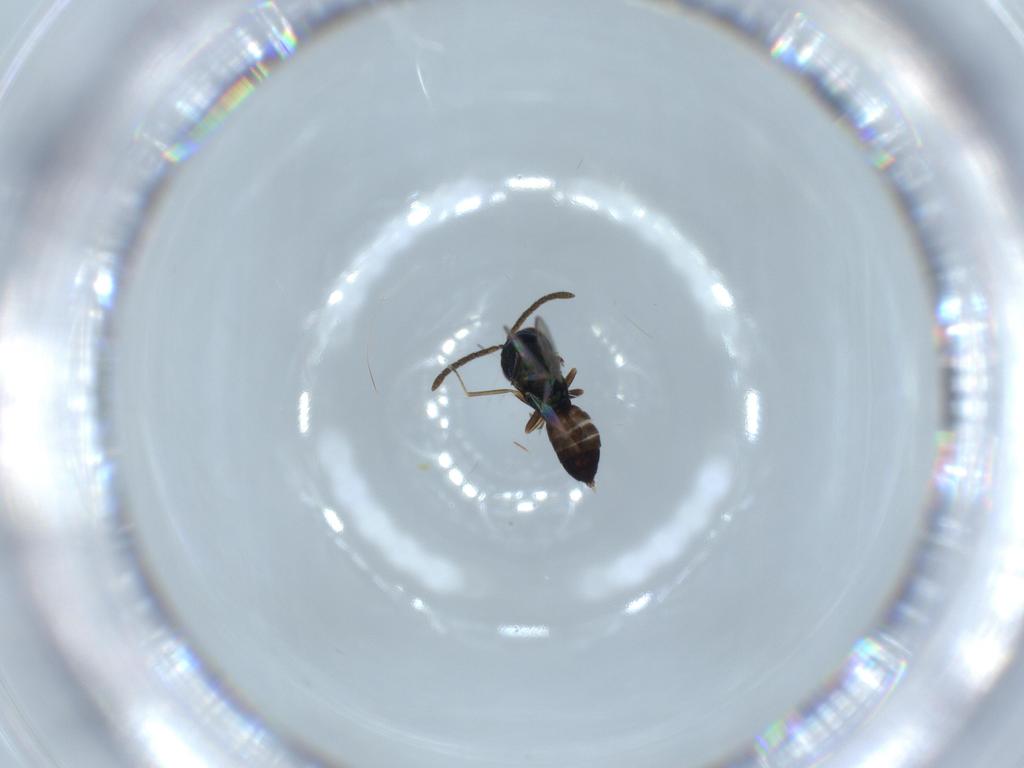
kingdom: Animalia
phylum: Arthropoda
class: Insecta
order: Hymenoptera
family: Pteromalidae
